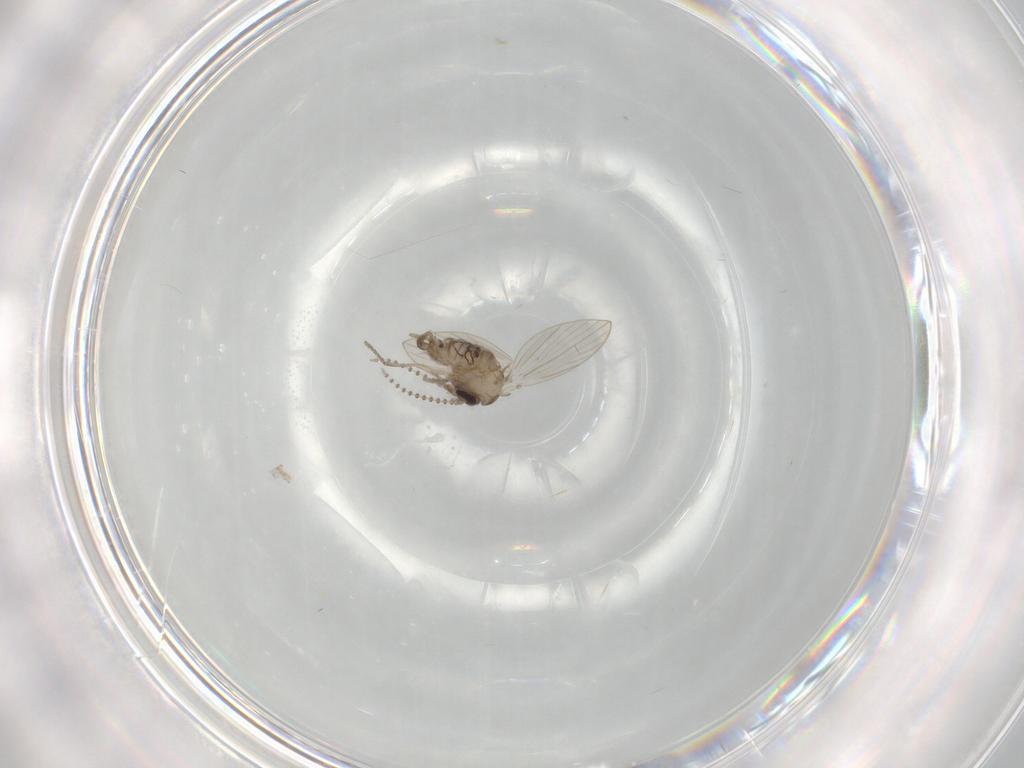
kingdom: Animalia
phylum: Arthropoda
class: Insecta
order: Diptera
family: Psychodidae
